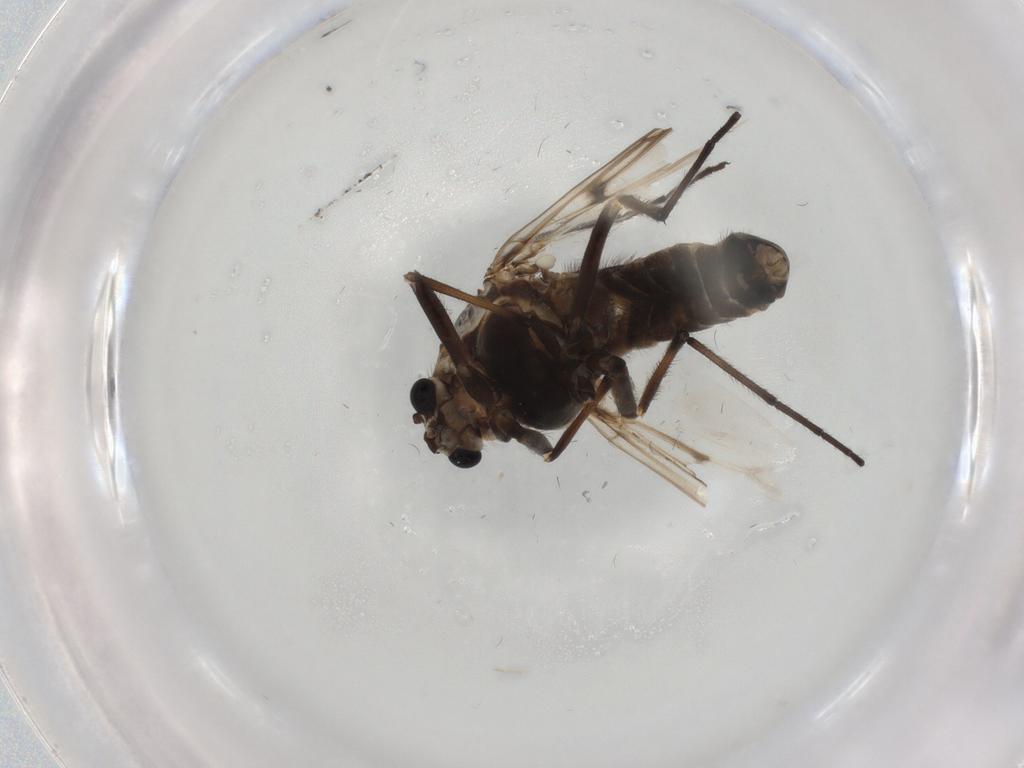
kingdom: Animalia
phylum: Arthropoda
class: Insecta
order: Diptera
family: Chironomidae
